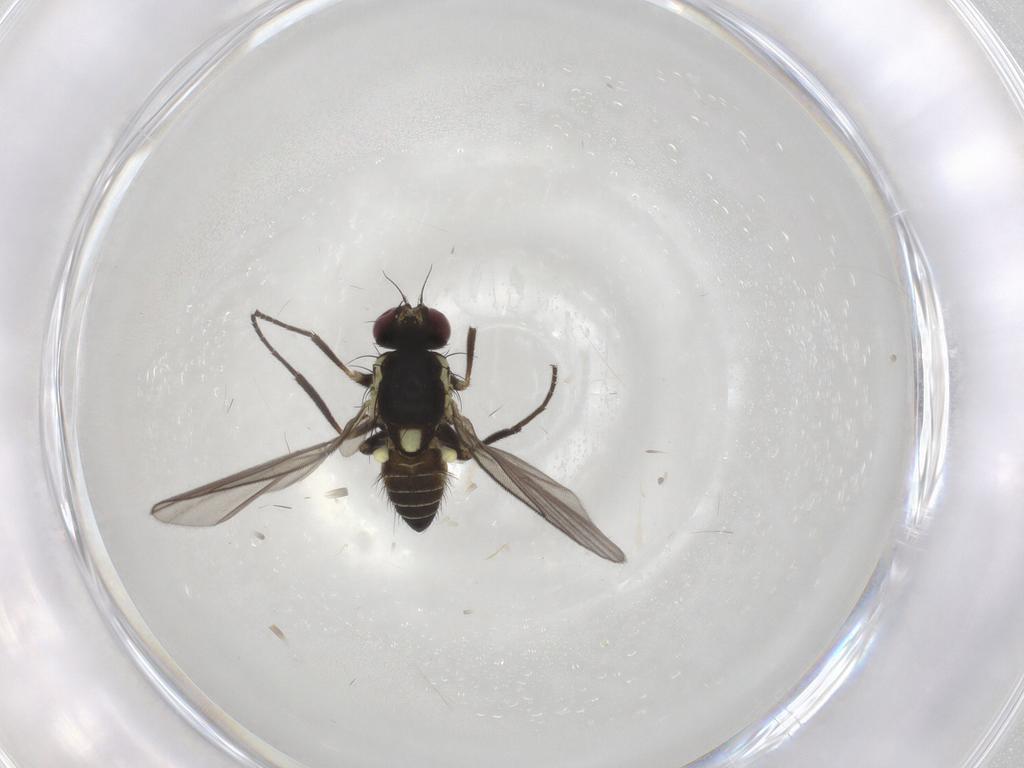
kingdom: Animalia
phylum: Arthropoda
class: Insecta
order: Diptera
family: Agromyzidae
